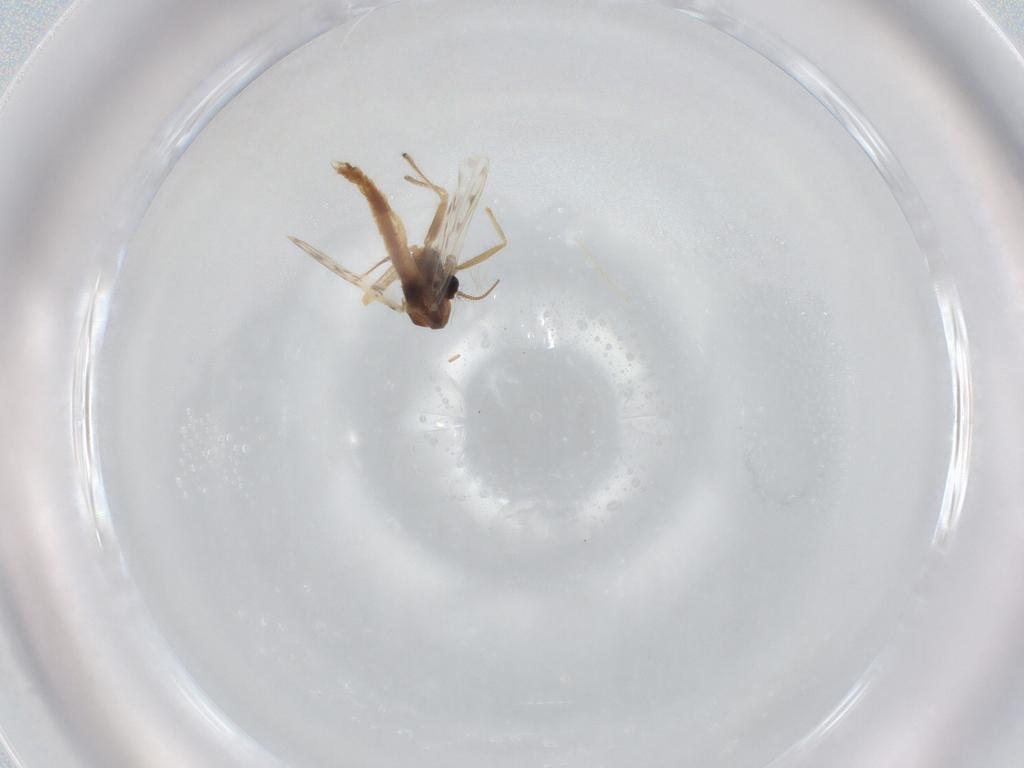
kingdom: Animalia
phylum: Arthropoda
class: Insecta
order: Diptera
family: Chironomidae
